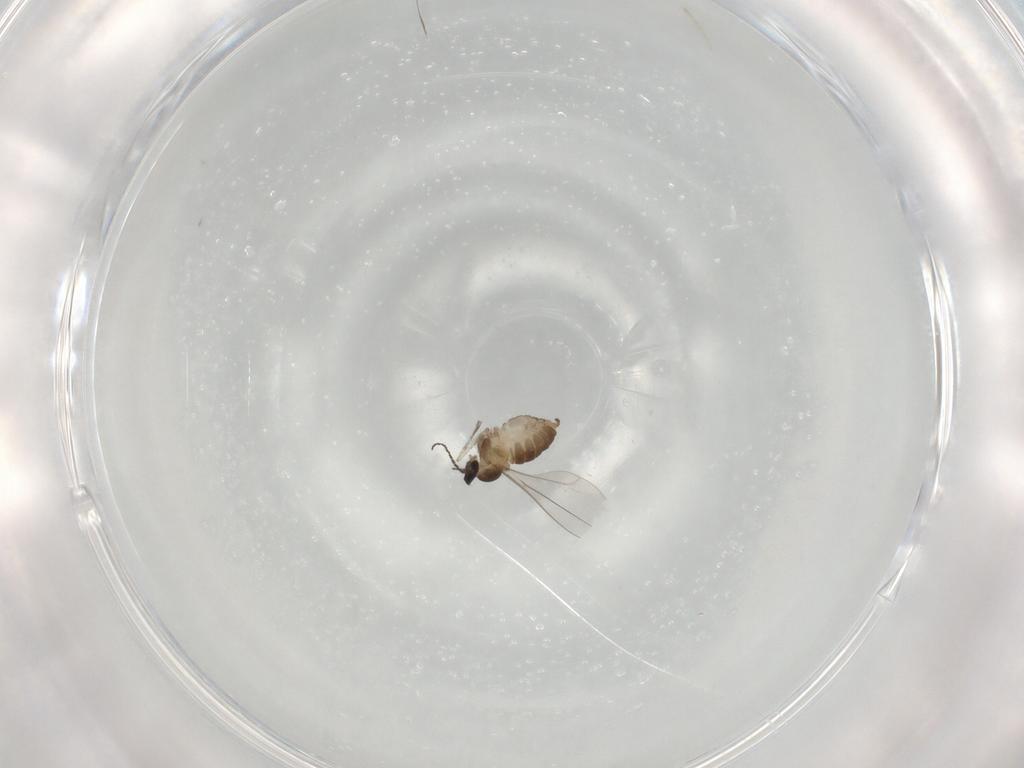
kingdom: Animalia
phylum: Arthropoda
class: Insecta
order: Diptera
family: Cecidomyiidae
